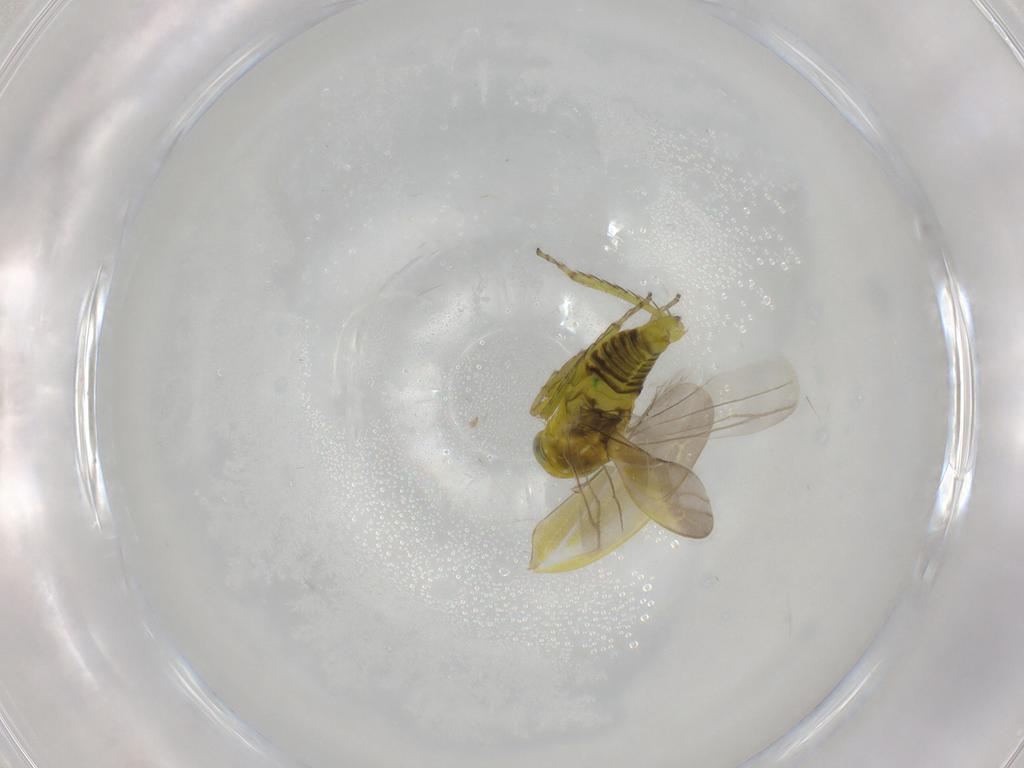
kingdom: Animalia
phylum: Arthropoda
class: Insecta
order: Hemiptera
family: Cicadellidae
